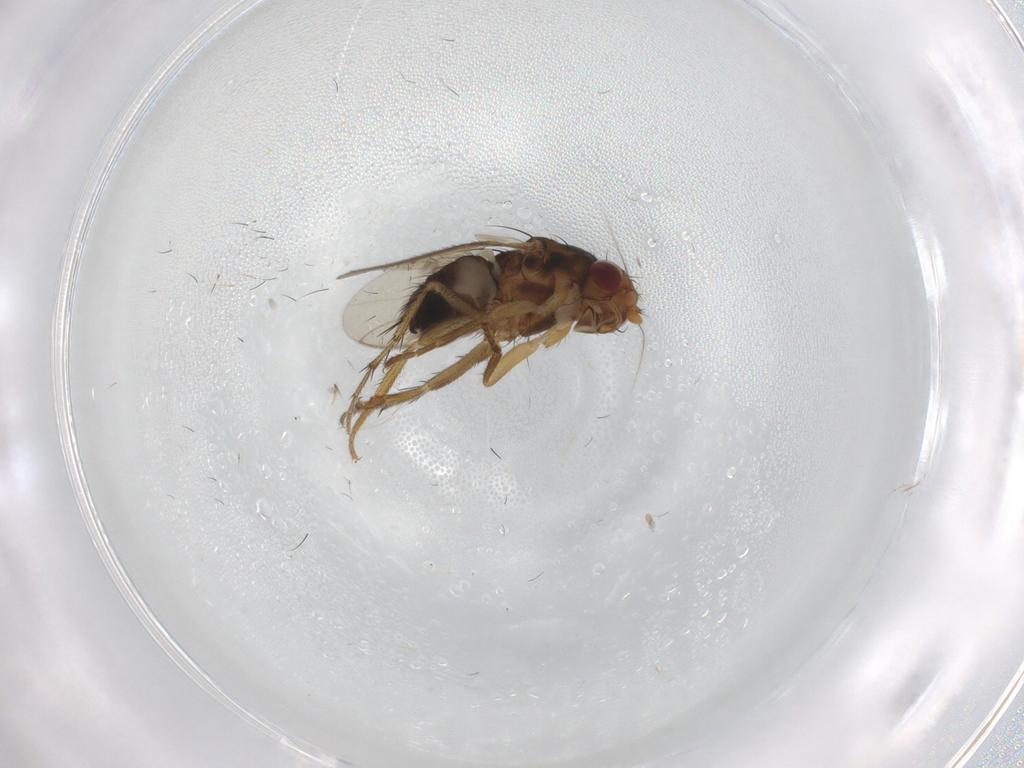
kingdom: Animalia
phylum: Arthropoda
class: Insecta
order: Diptera
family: Sphaeroceridae
